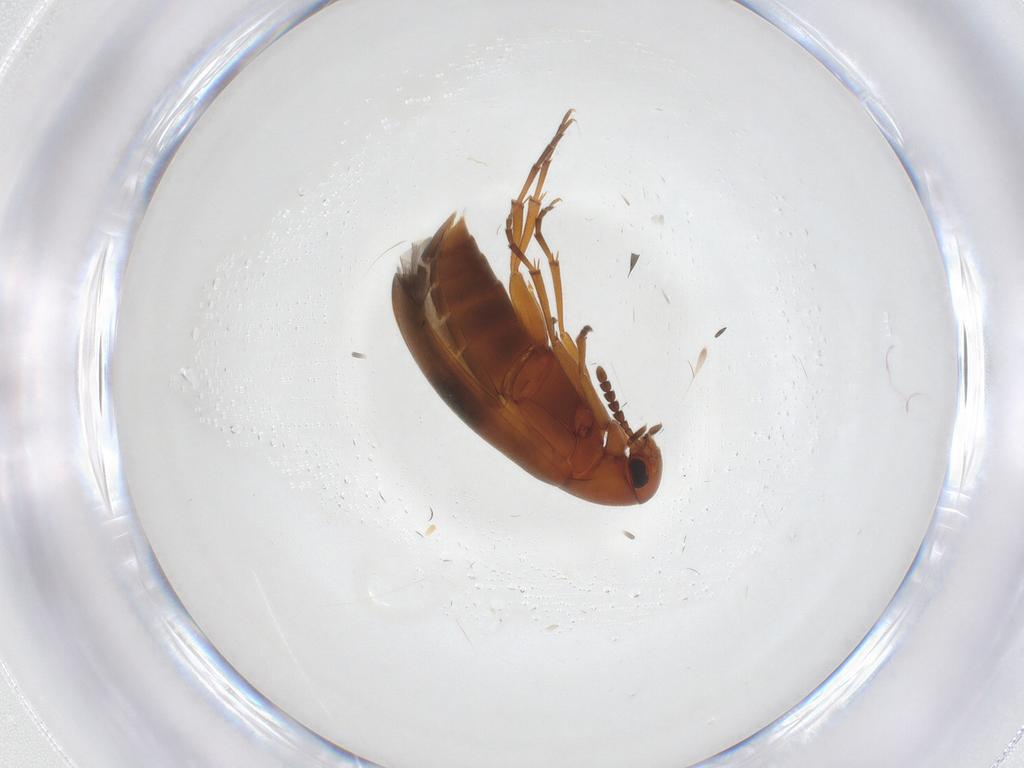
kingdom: Animalia
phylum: Arthropoda
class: Insecta
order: Coleoptera
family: Scraptiidae
